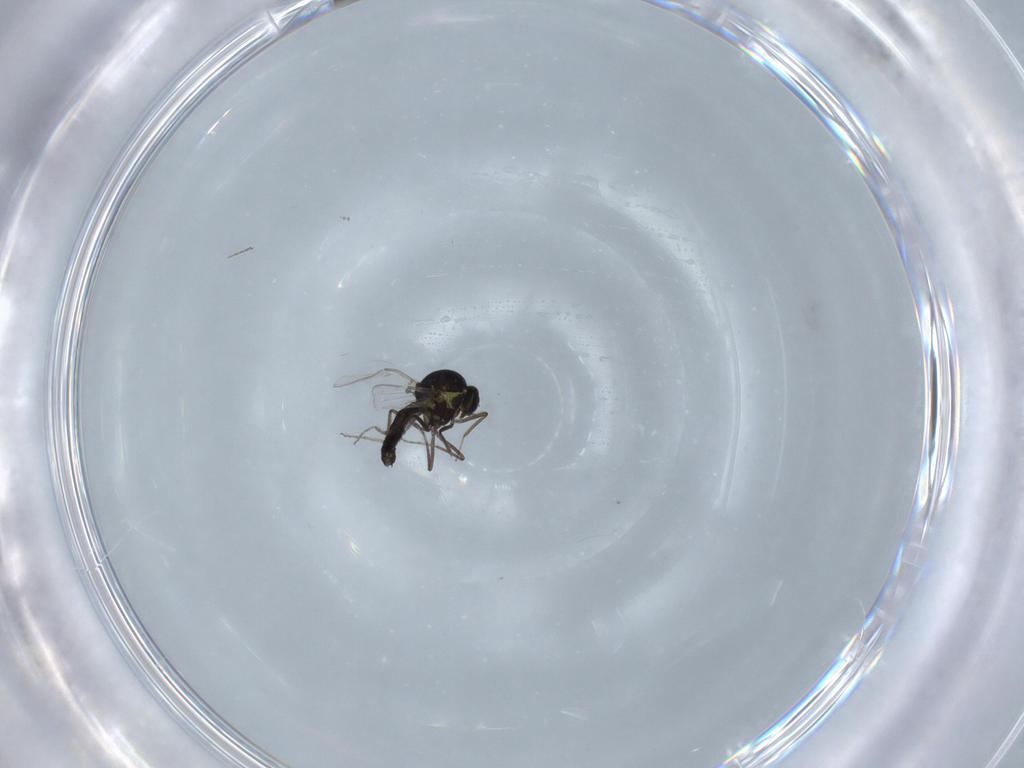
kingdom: Animalia
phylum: Arthropoda
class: Insecta
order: Diptera
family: Ceratopogonidae
